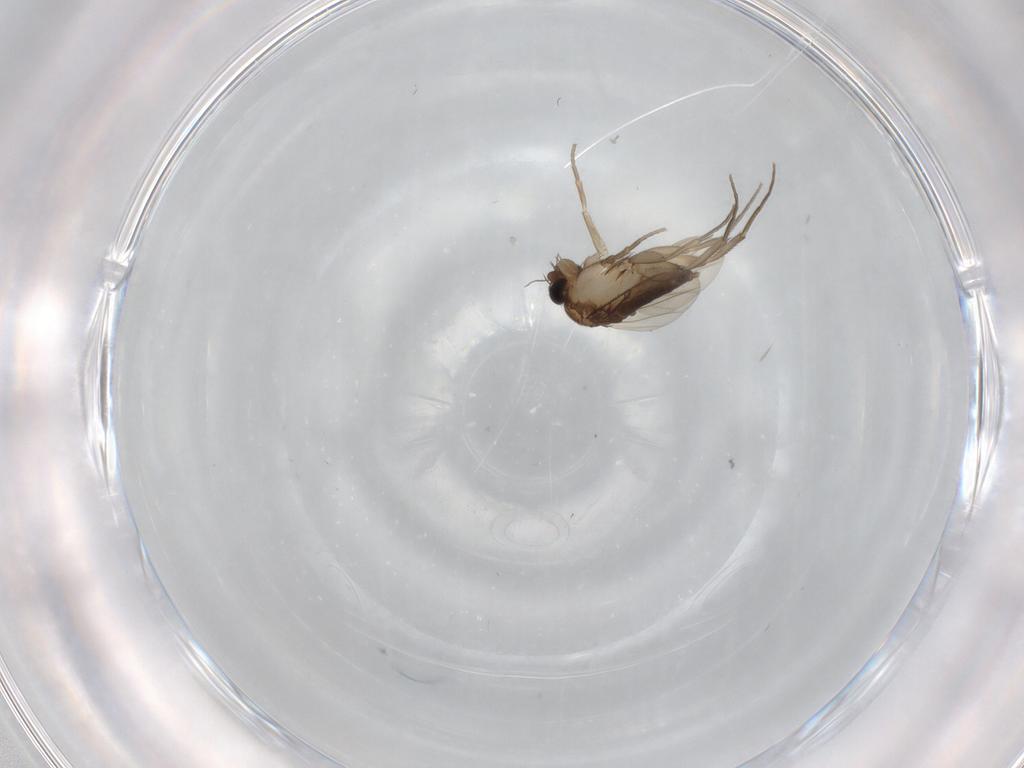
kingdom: Animalia
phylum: Arthropoda
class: Insecta
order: Diptera
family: Phoridae
